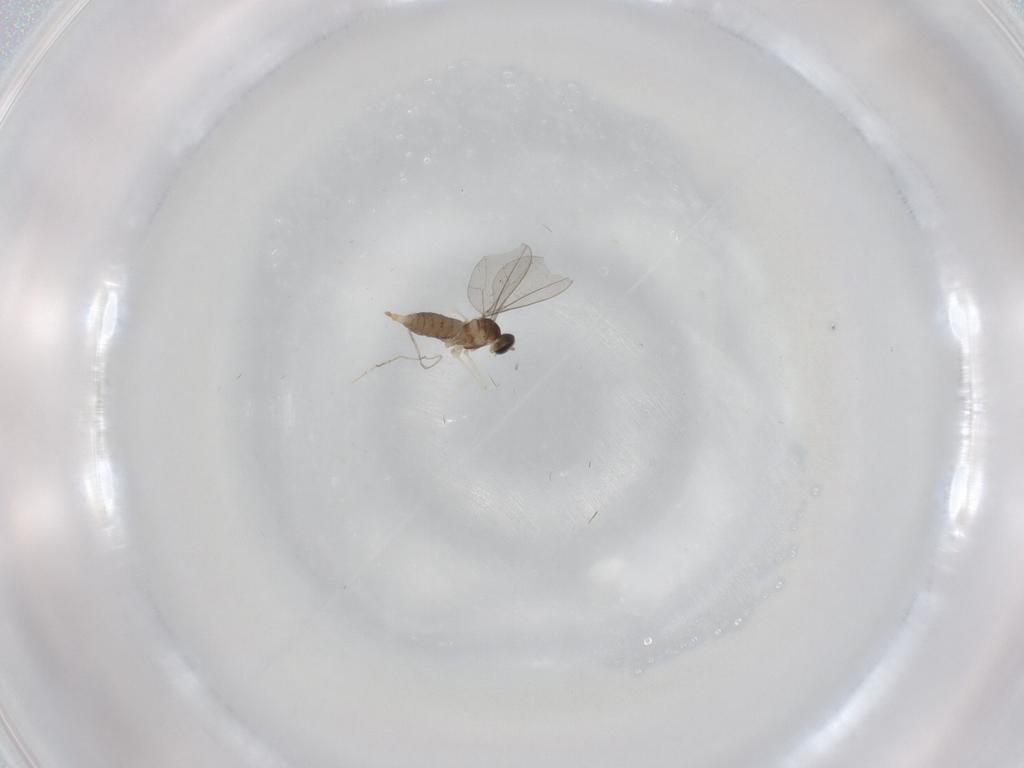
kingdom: Animalia
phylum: Arthropoda
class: Insecta
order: Diptera
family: Cecidomyiidae
